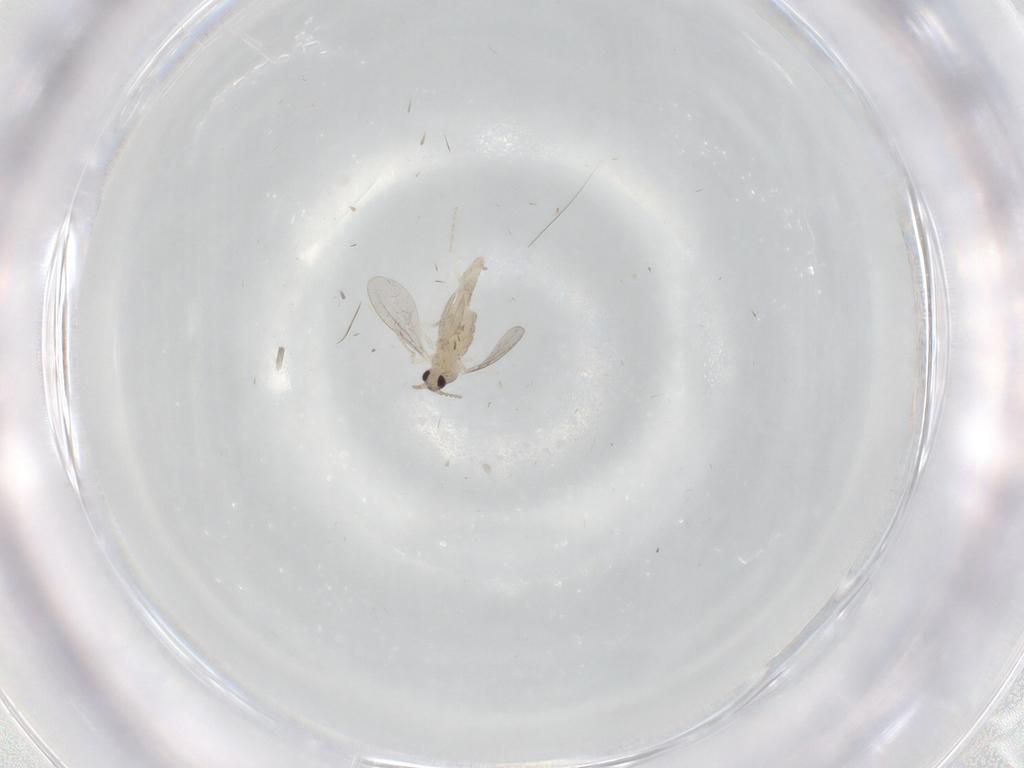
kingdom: Animalia
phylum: Arthropoda
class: Insecta
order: Diptera
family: Cecidomyiidae
